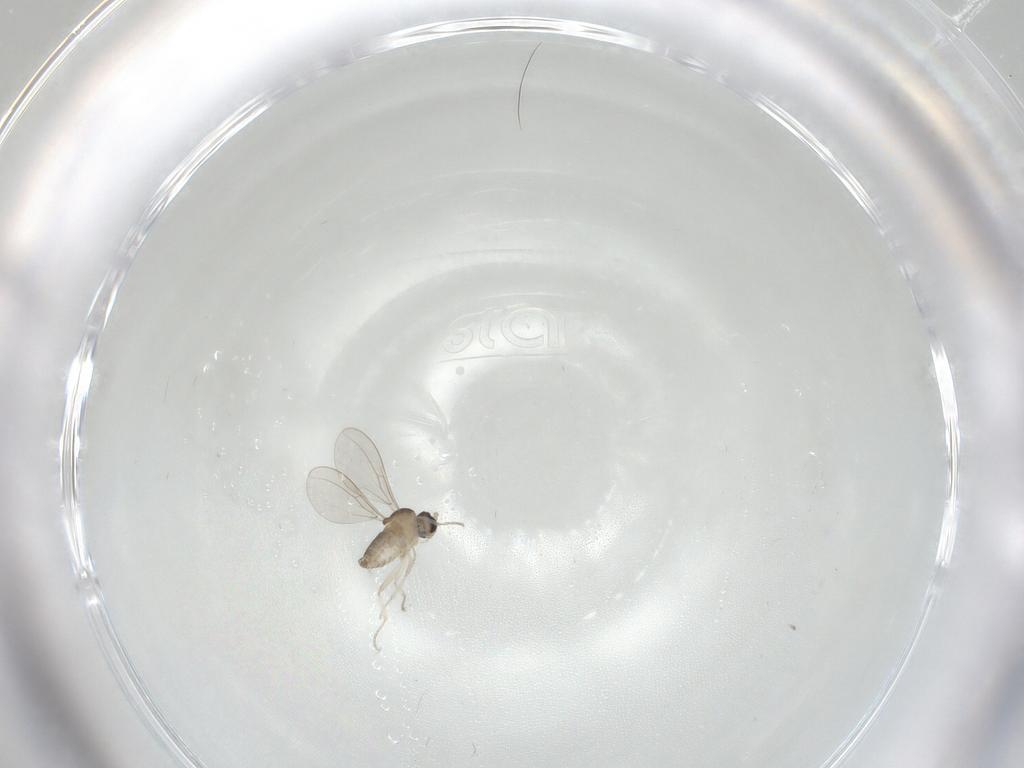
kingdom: Animalia
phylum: Arthropoda
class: Insecta
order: Diptera
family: Cecidomyiidae
